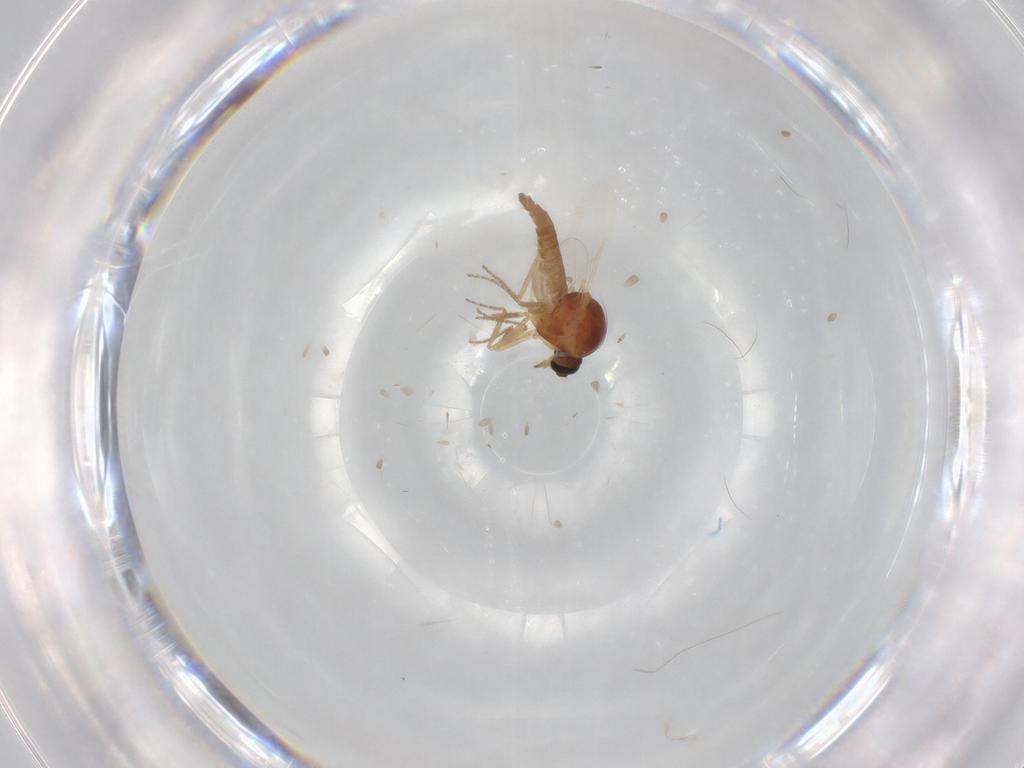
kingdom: Animalia
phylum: Arthropoda
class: Insecta
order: Diptera
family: Ceratopogonidae
